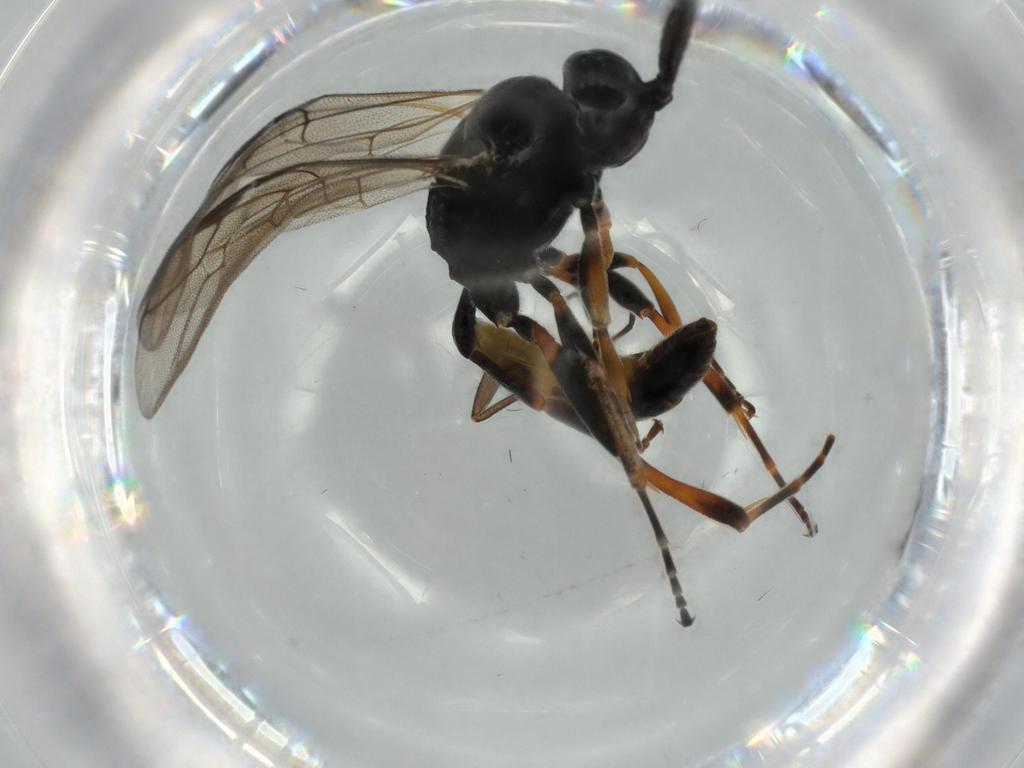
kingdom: Animalia
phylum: Arthropoda
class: Insecta
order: Hymenoptera
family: Ichneumonidae
